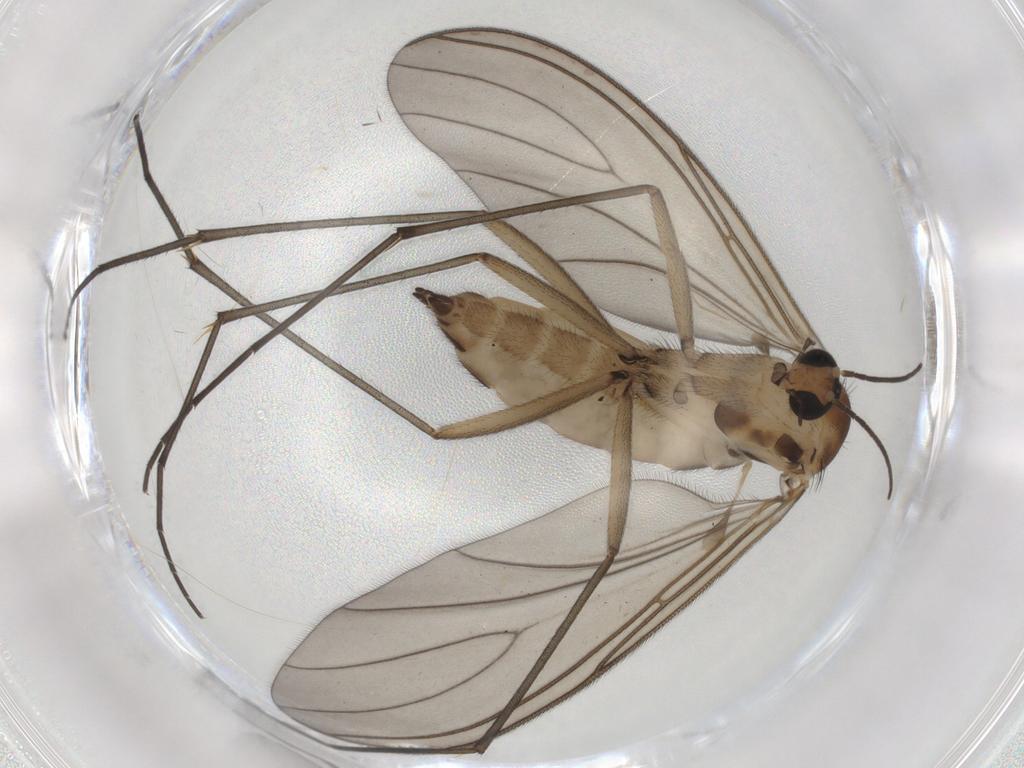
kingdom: Animalia
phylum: Arthropoda
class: Insecta
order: Diptera
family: Sciaridae
